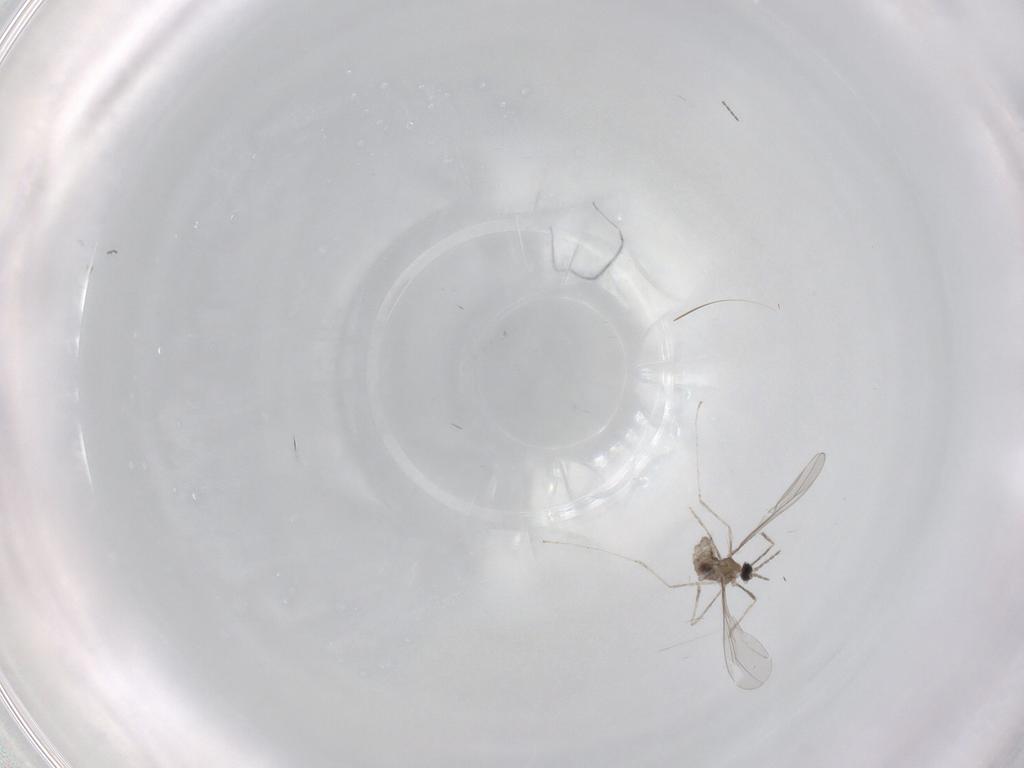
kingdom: Animalia
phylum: Arthropoda
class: Insecta
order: Diptera
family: Cecidomyiidae
